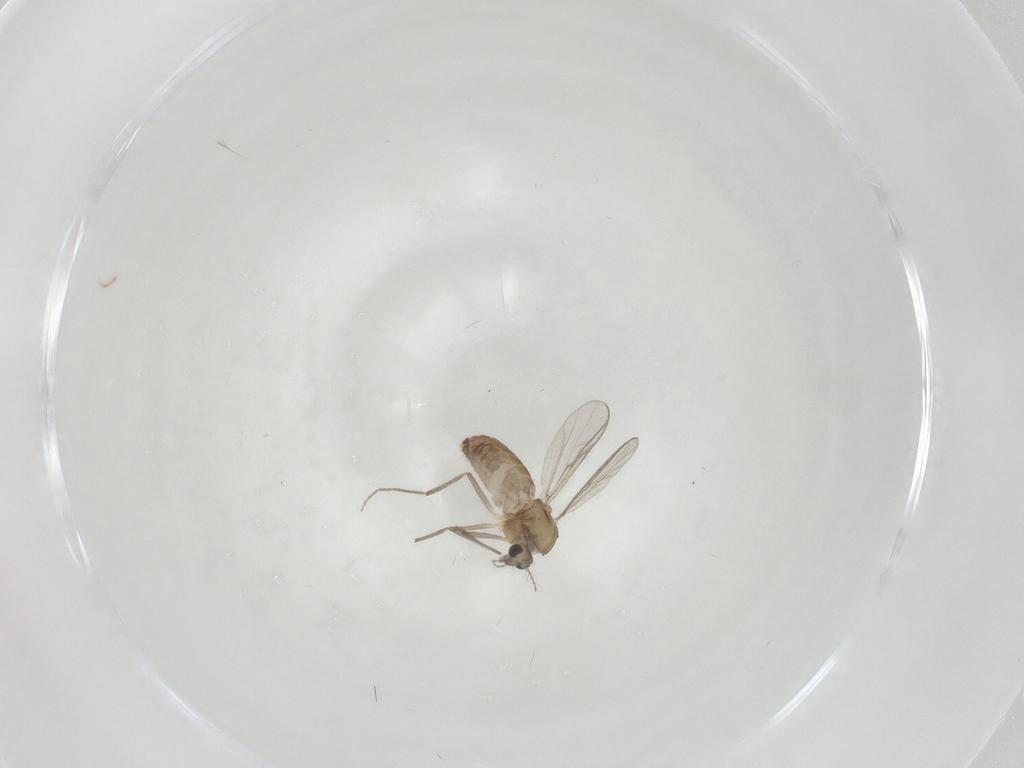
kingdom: Animalia
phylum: Arthropoda
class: Insecta
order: Diptera
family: Chironomidae
